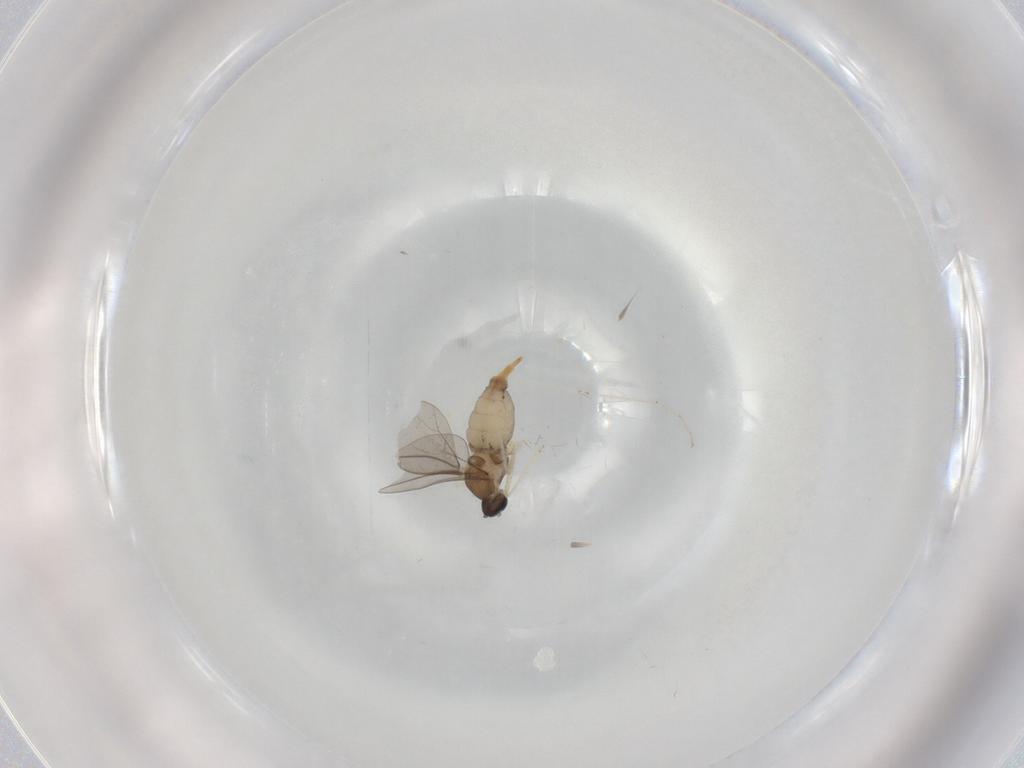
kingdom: Animalia
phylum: Arthropoda
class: Insecta
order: Diptera
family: Cecidomyiidae
